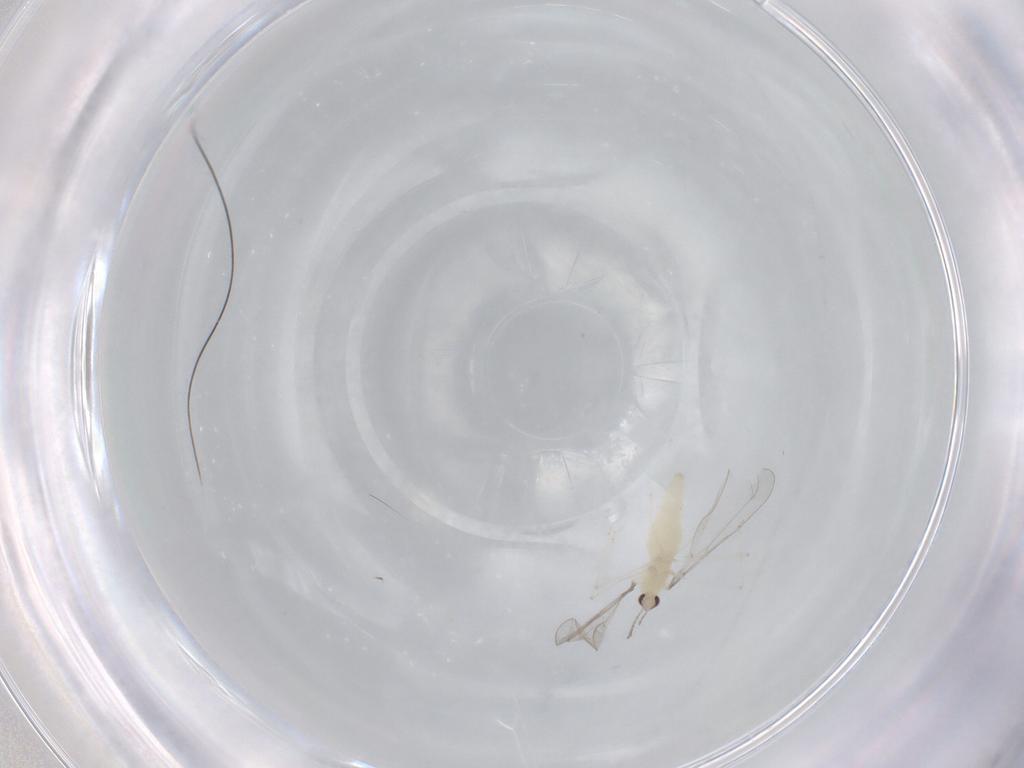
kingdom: Animalia
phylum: Arthropoda
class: Insecta
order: Diptera
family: Cecidomyiidae
